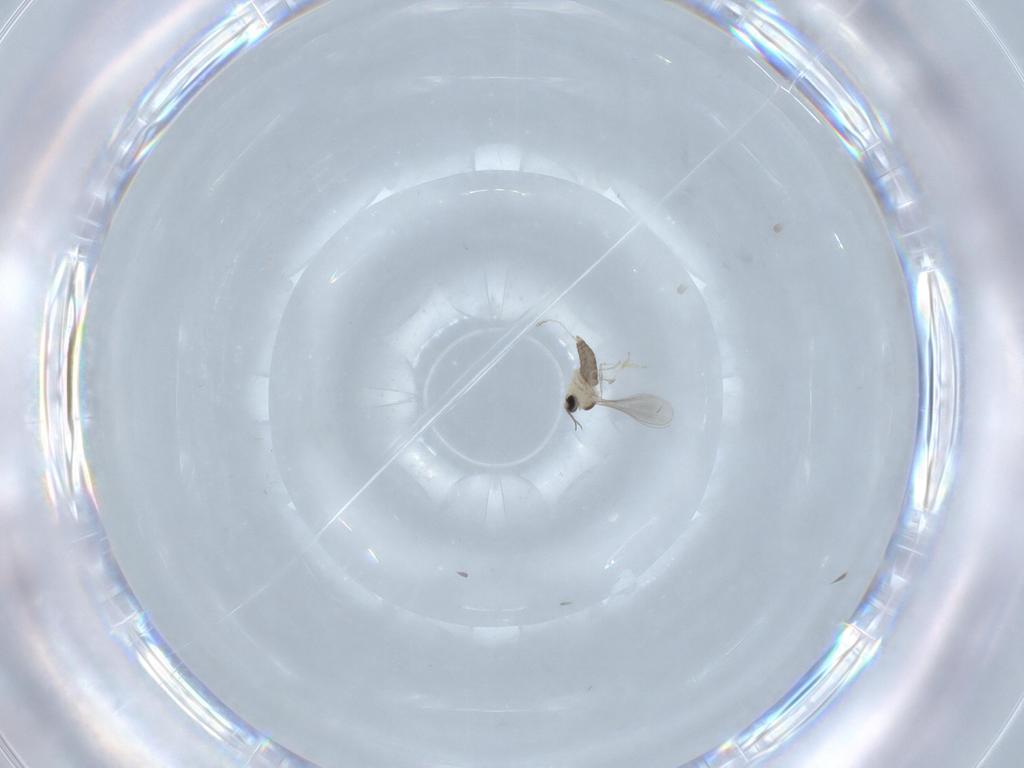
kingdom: Animalia
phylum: Arthropoda
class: Insecta
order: Diptera
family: Cecidomyiidae
